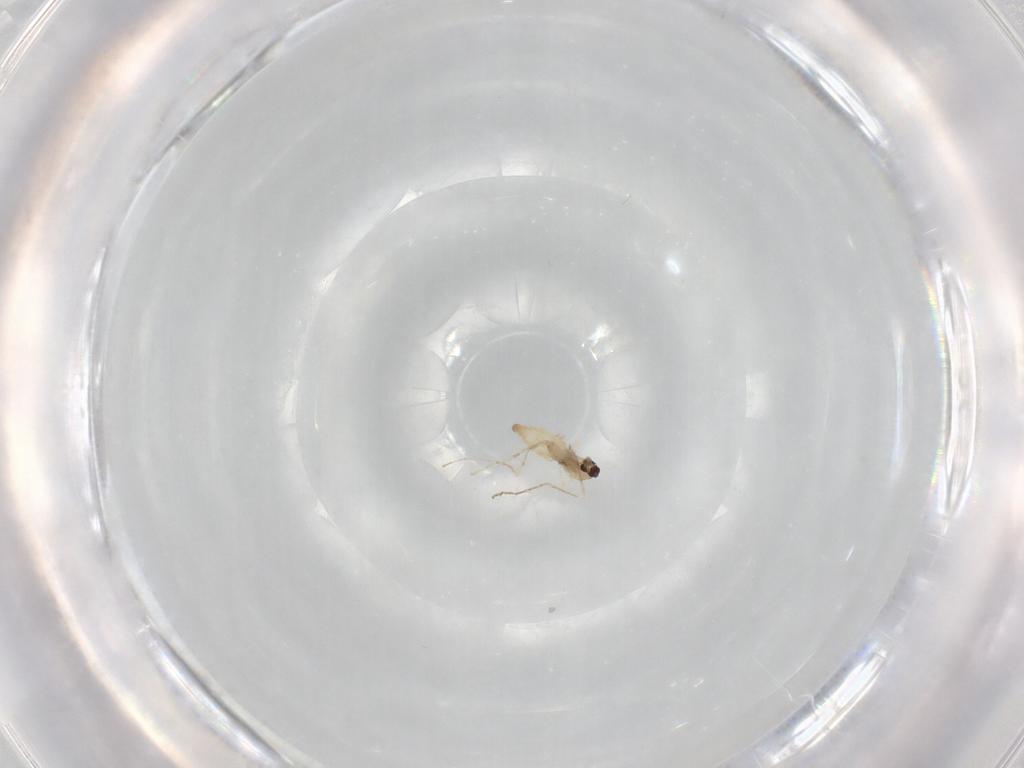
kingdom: Animalia
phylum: Arthropoda
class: Insecta
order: Diptera
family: Cecidomyiidae
